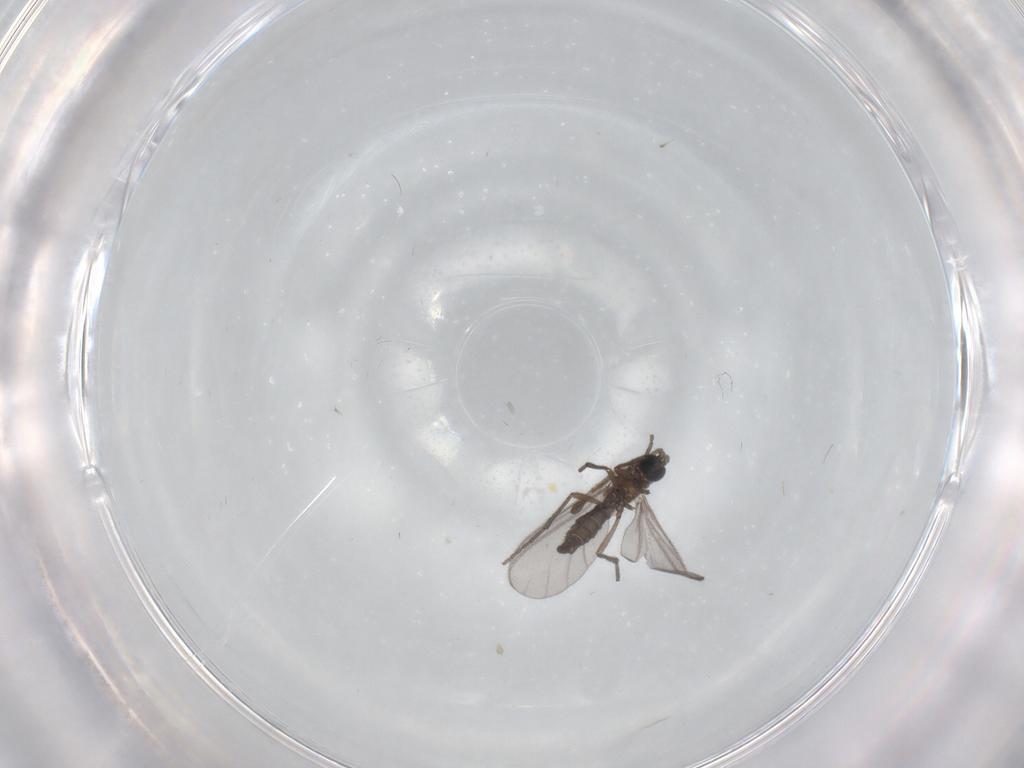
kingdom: Animalia
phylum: Arthropoda
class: Insecta
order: Diptera
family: Sciaridae
